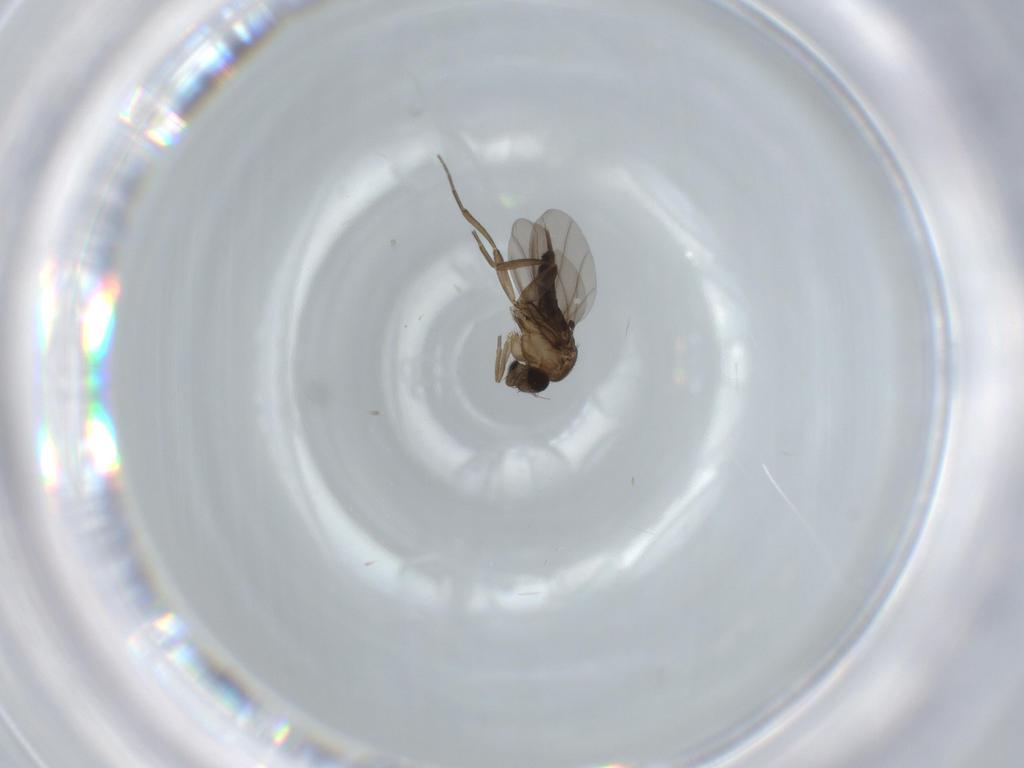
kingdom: Animalia
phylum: Arthropoda
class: Insecta
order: Diptera
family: Phoridae
